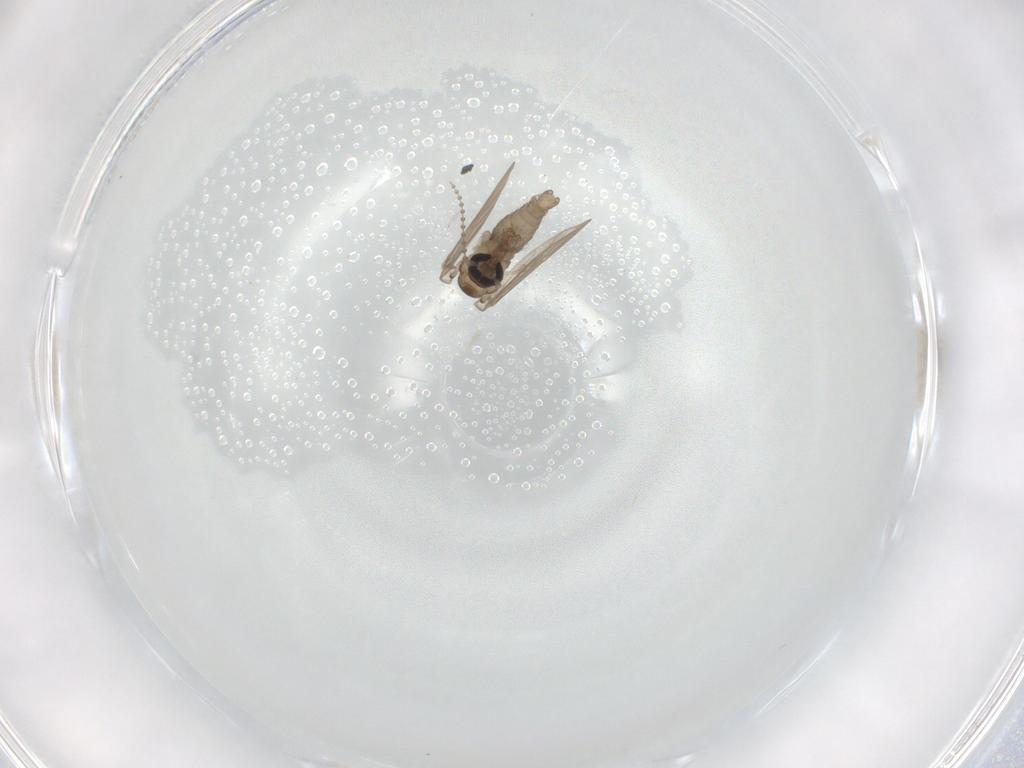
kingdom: Animalia
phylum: Arthropoda
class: Insecta
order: Diptera
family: Psychodidae
